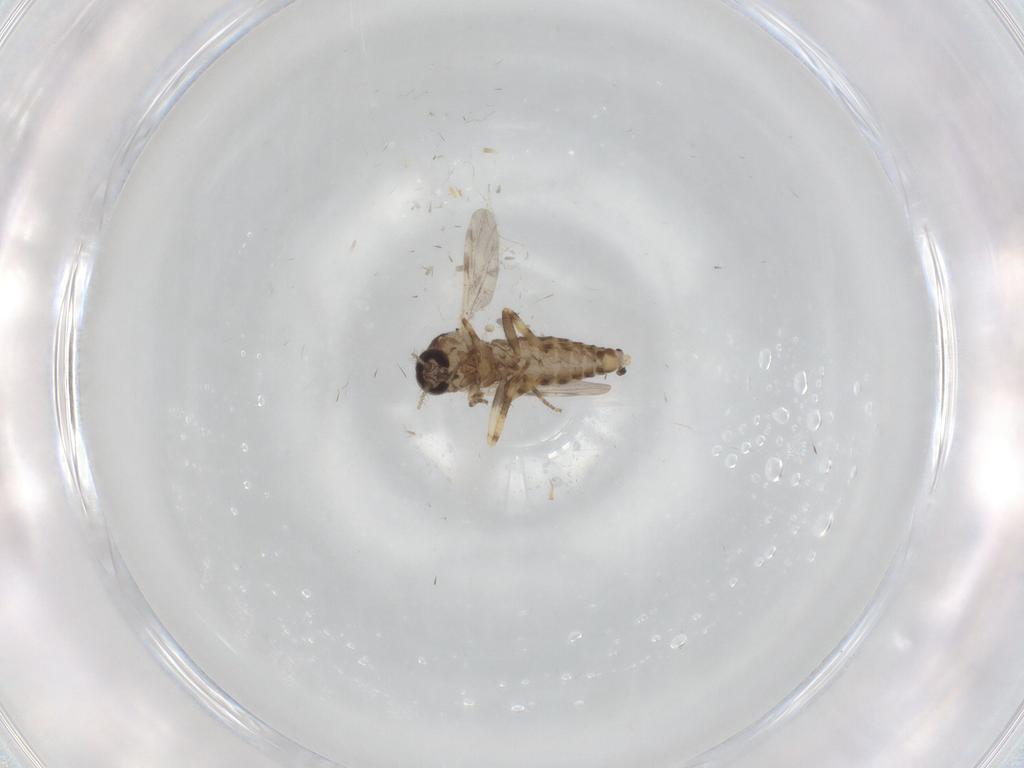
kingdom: Animalia
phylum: Arthropoda
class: Insecta
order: Diptera
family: Ceratopogonidae
